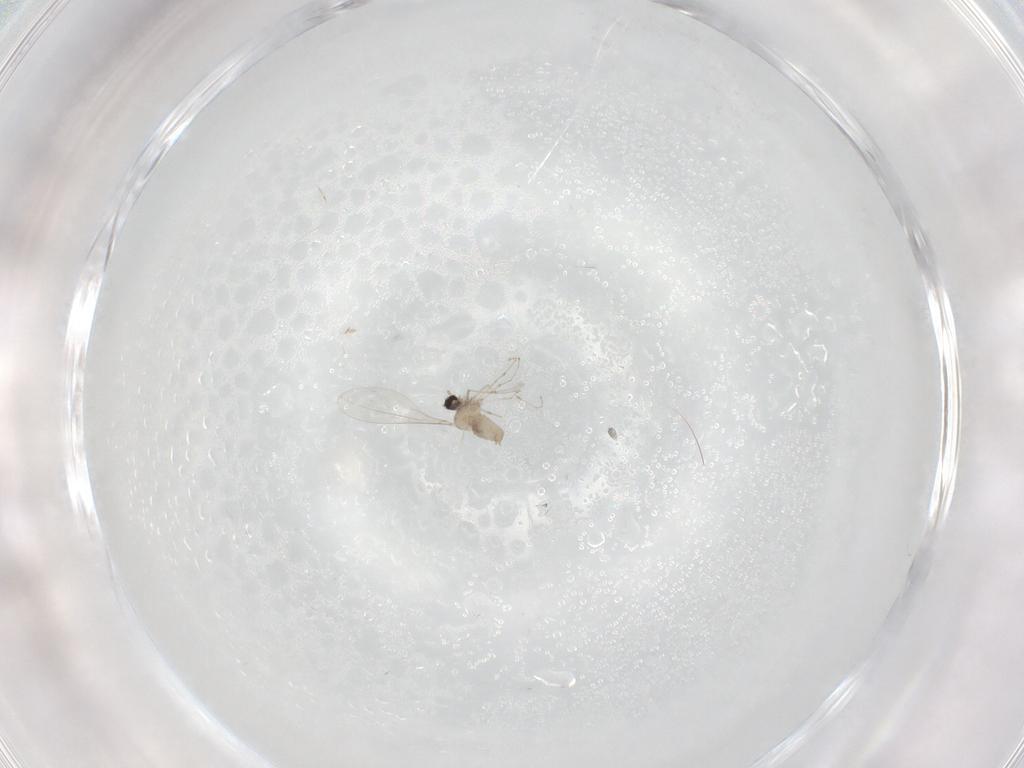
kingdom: Animalia
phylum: Arthropoda
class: Insecta
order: Diptera
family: Cecidomyiidae
